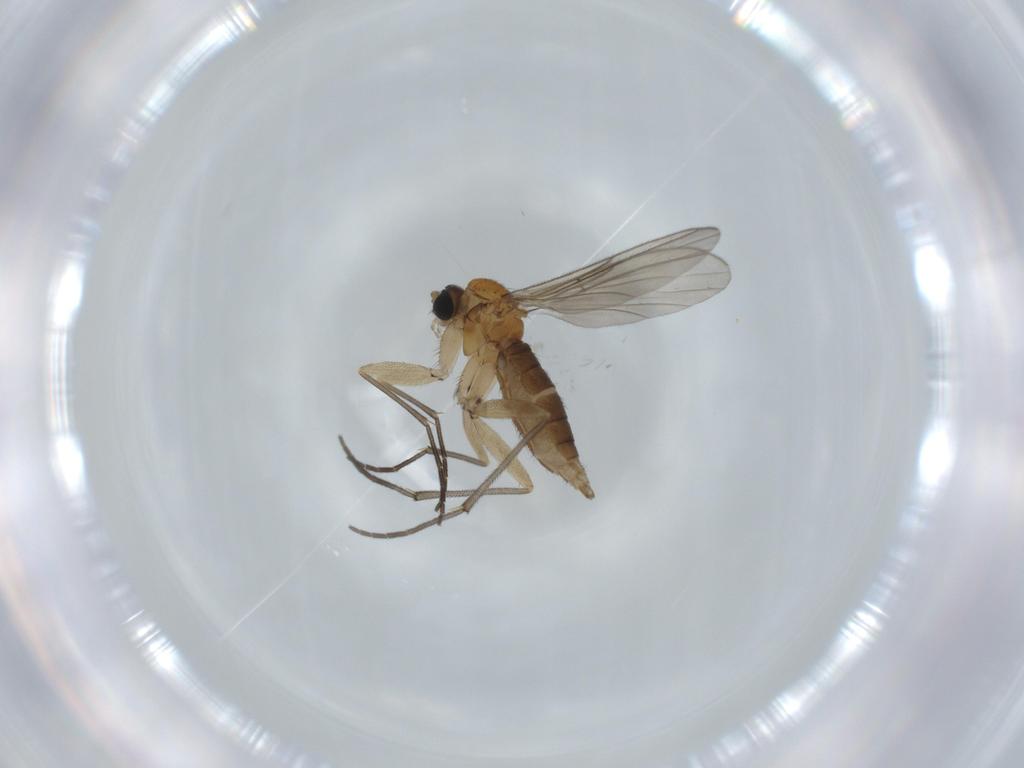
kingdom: Animalia
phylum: Arthropoda
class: Insecta
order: Diptera
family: Sciaridae
